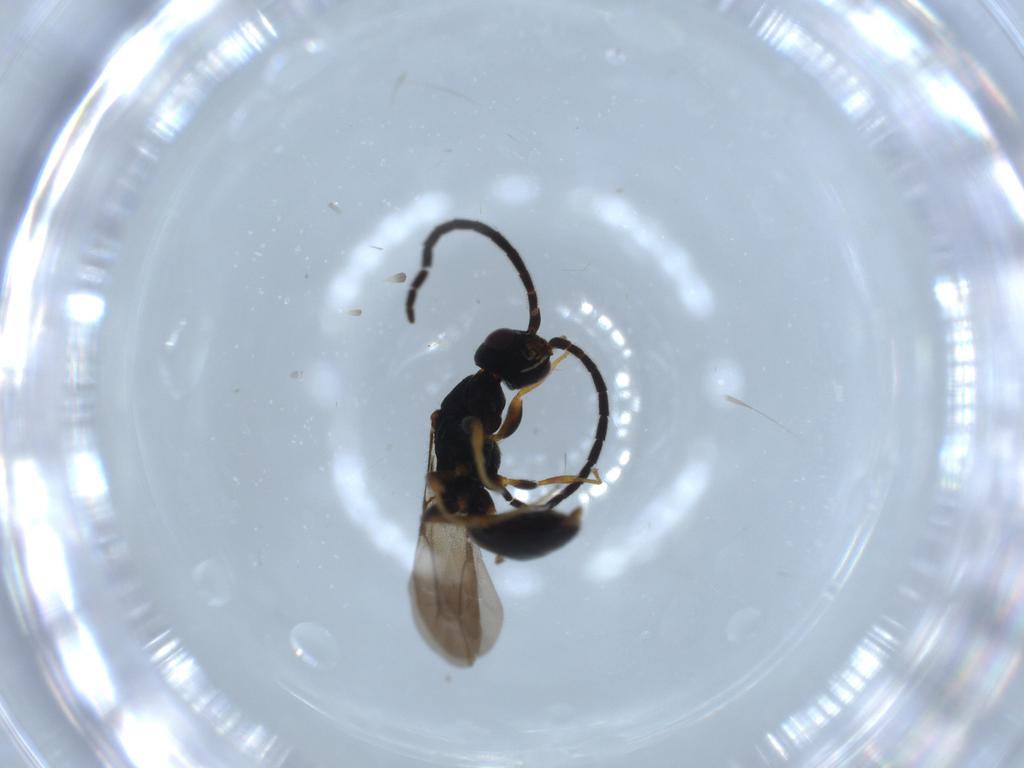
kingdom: Animalia
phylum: Arthropoda
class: Insecta
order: Hymenoptera
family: Bethylidae
